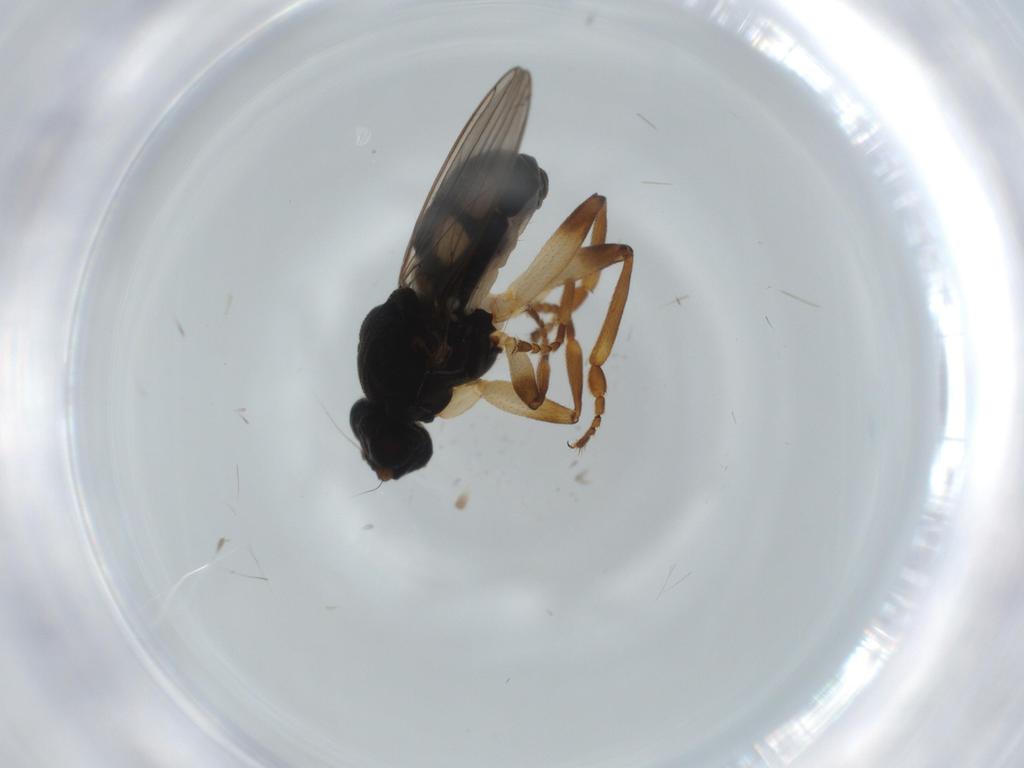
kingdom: Animalia
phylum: Arthropoda
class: Insecta
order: Diptera
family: Sphaeroceridae
